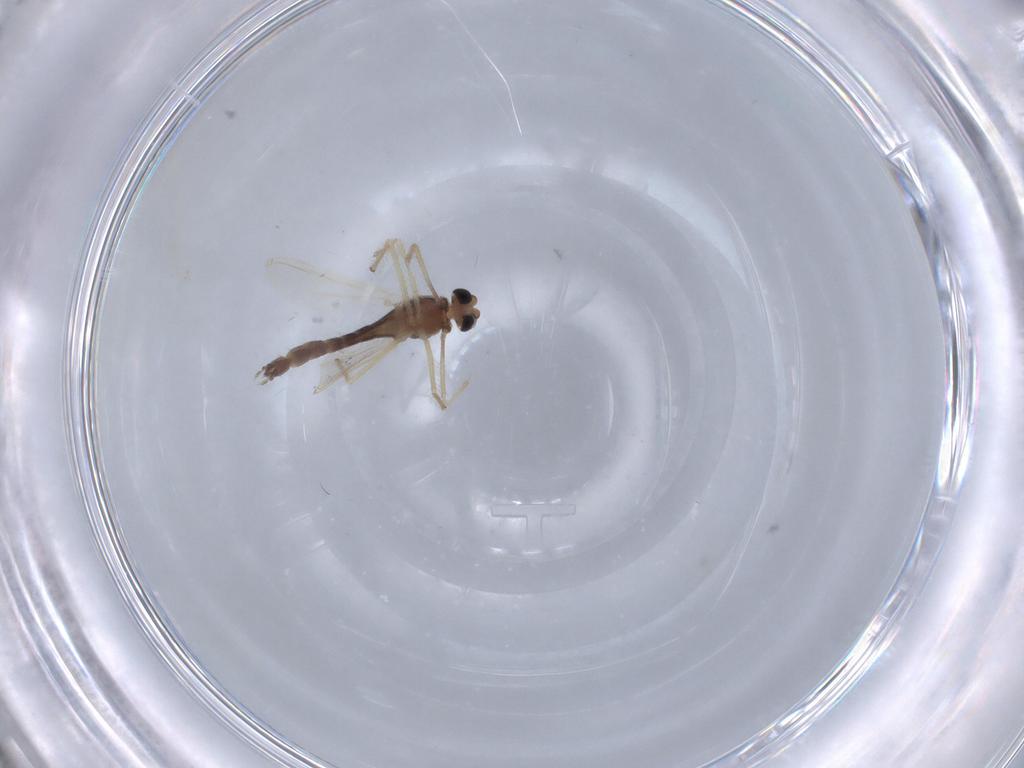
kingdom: Animalia
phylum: Arthropoda
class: Insecta
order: Diptera
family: Chironomidae
